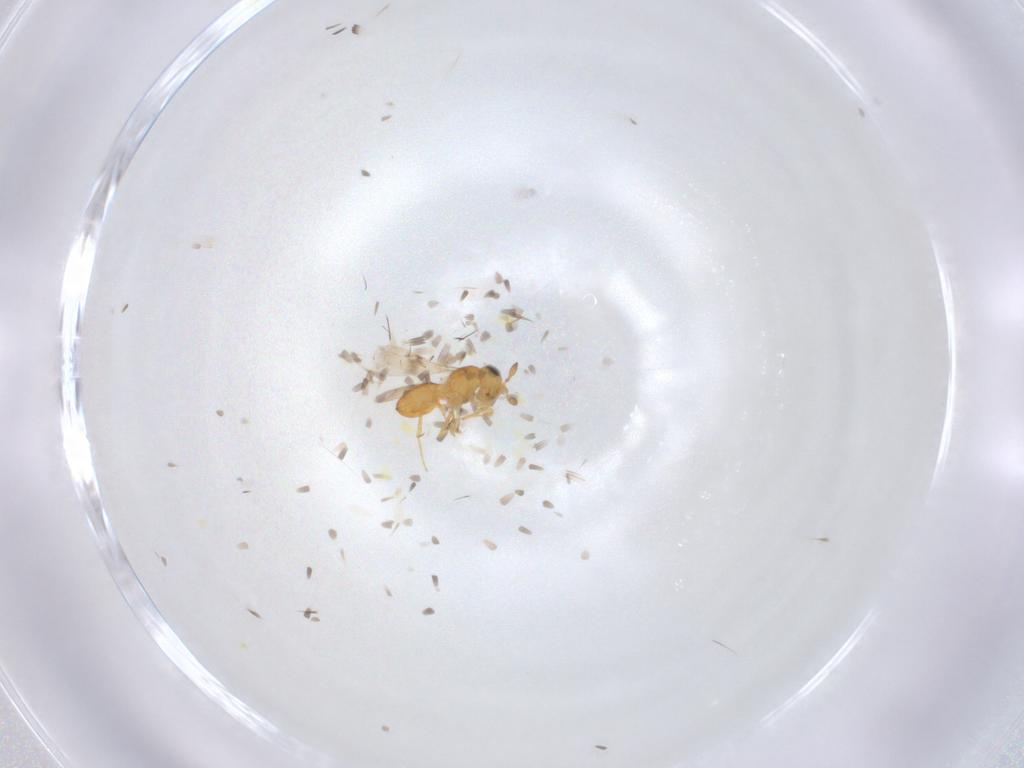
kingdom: Animalia
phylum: Arthropoda
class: Insecta
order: Hymenoptera
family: Scelionidae
